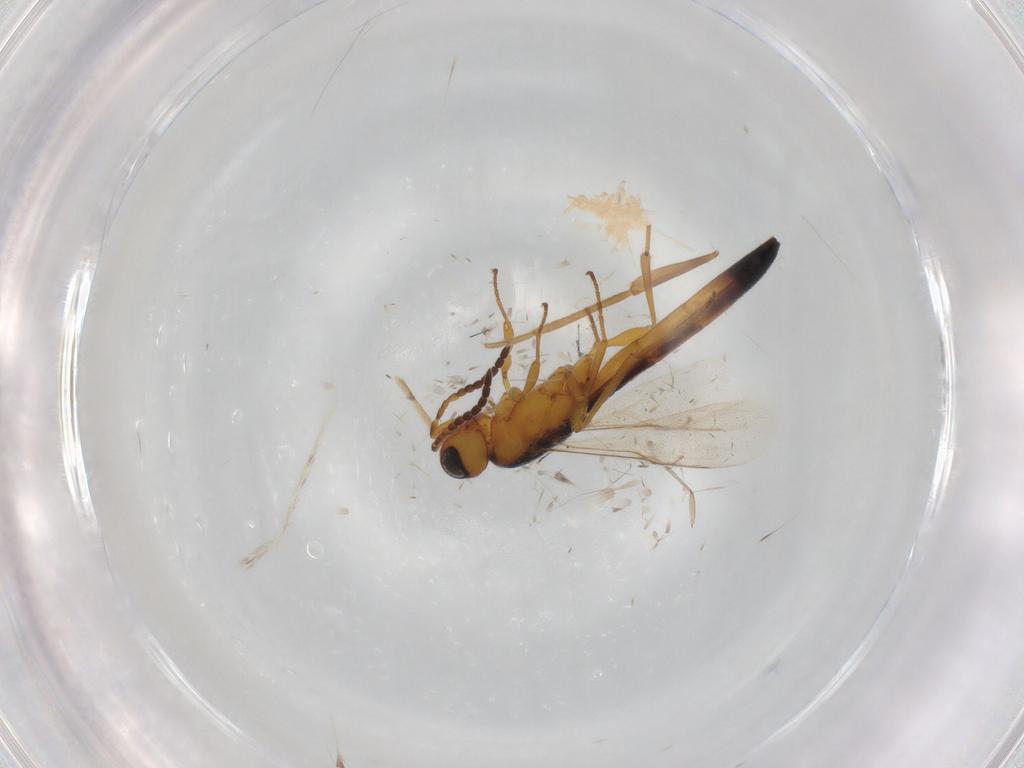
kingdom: Animalia
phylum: Arthropoda
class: Insecta
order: Hymenoptera
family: Scelionidae
